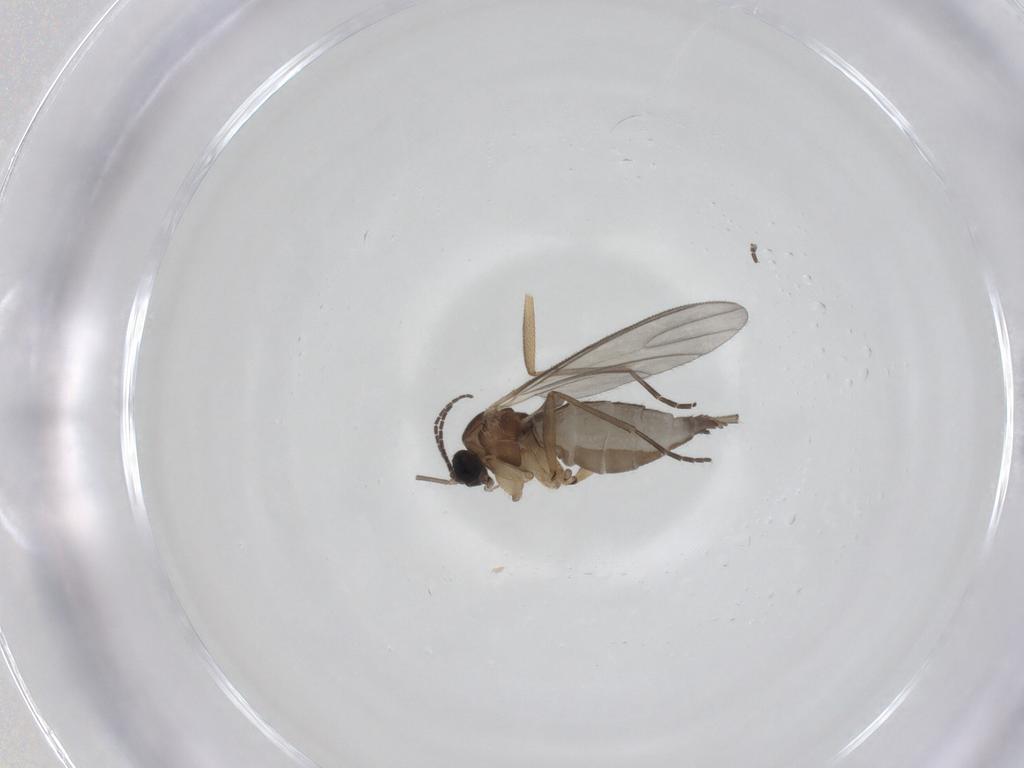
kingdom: Animalia
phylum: Arthropoda
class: Insecta
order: Diptera
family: Sciaridae
